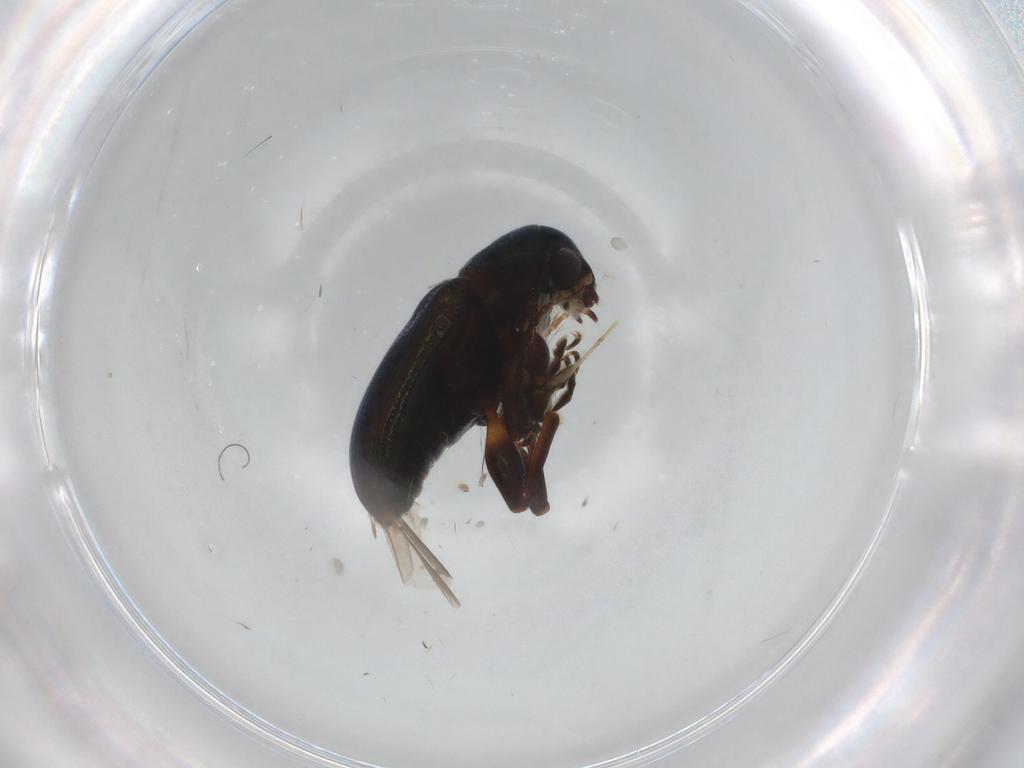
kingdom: Animalia
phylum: Arthropoda
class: Insecta
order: Coleoptera
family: Chrysomelidae
